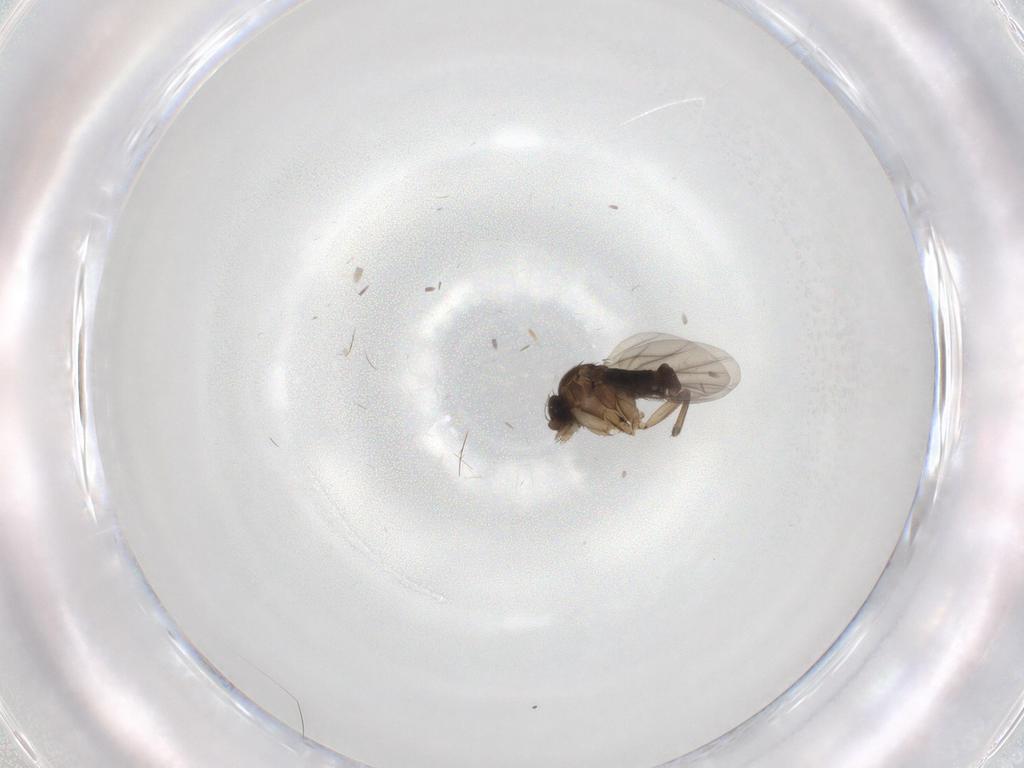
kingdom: Animalia
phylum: Arthropoda
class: Insecta
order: Diptera
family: Phoridae
